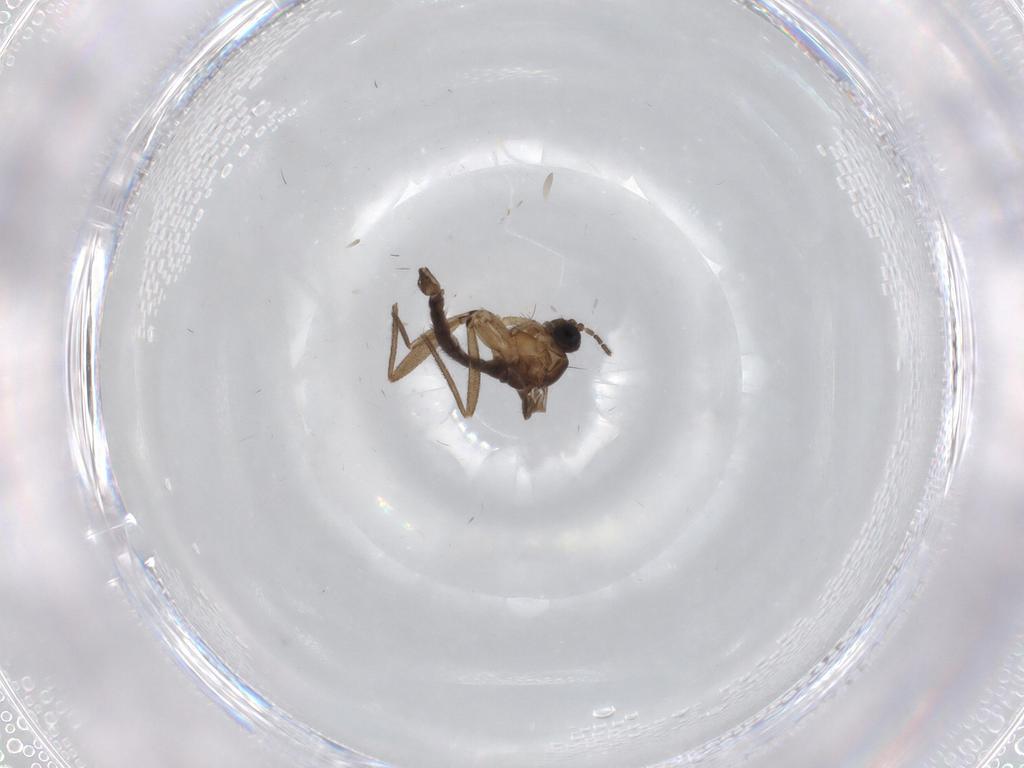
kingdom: Animalia
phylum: Arthropoda
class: Insecta
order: Diptera
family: Sciaridae
